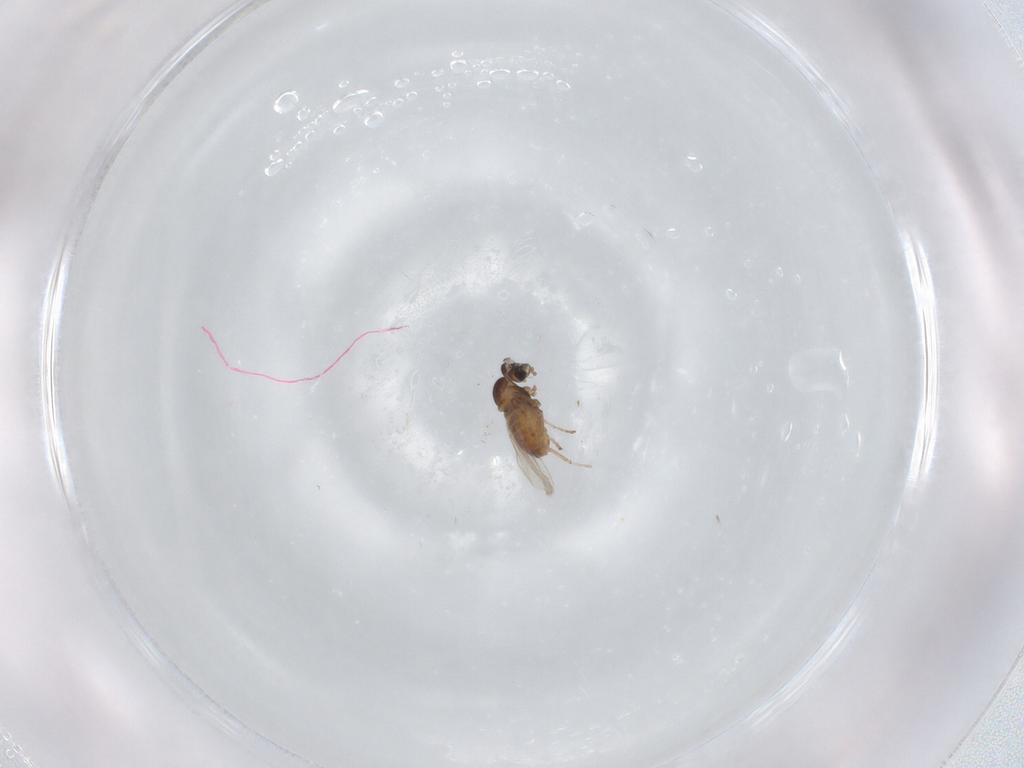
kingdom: Animalia
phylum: Arthropoda
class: Insecta
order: Diptera
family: Cecidomyiidae
